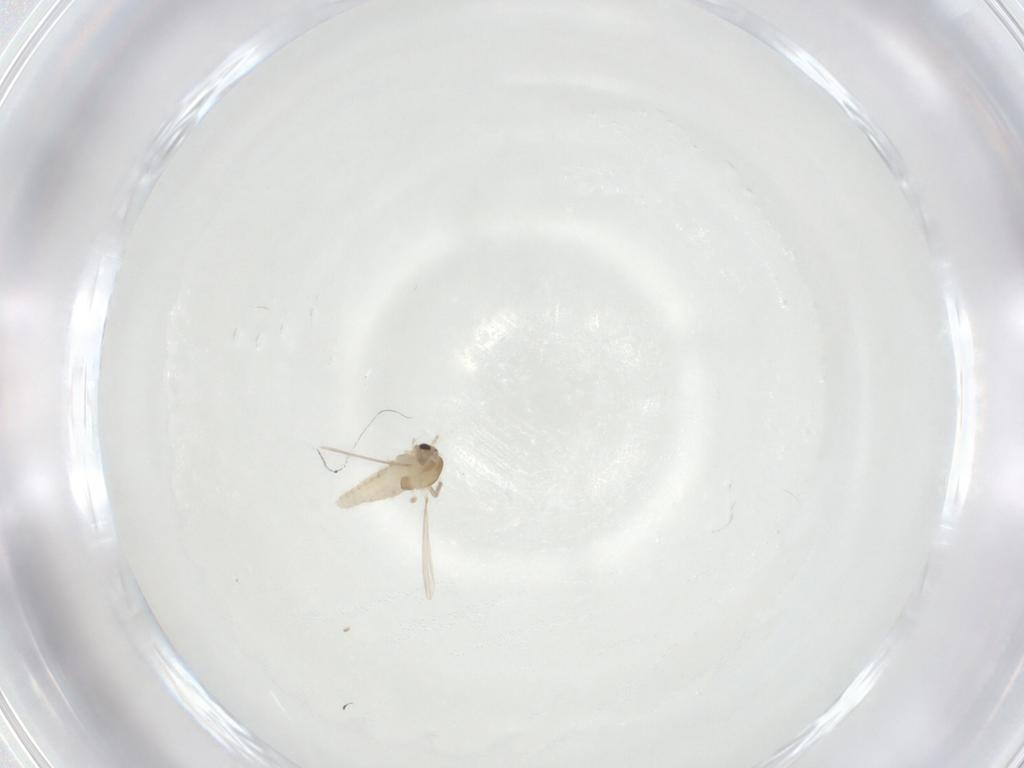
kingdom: Animalia
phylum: Arthropoda
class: Insecta
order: Diptera
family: Chironomidae
